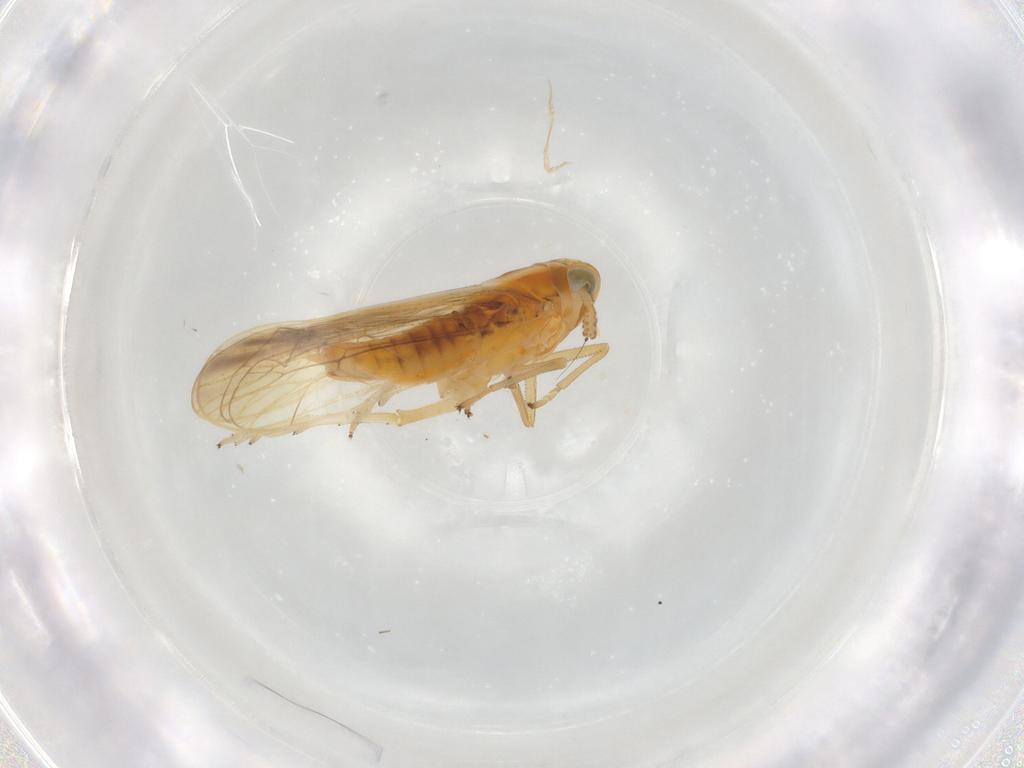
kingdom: Animalia
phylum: Arthropoda
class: Insecta
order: Hemiptera
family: Delphacidae
